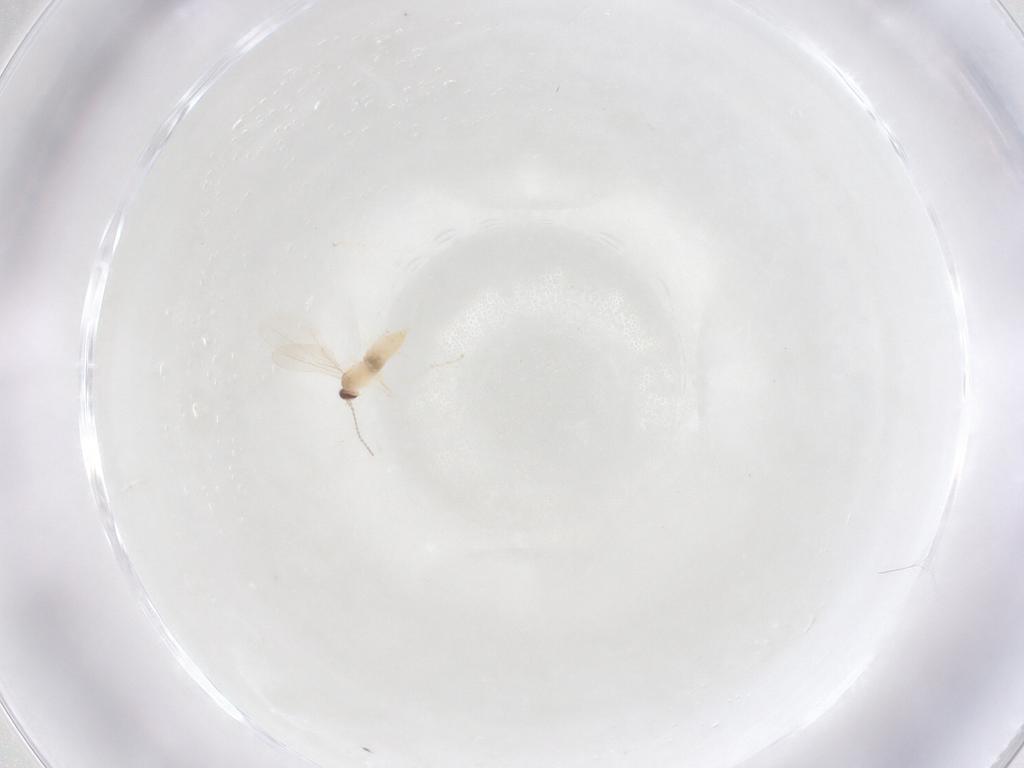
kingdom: Animalia
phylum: Arthropoda
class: Insecta
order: Diptera
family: Cecidomyiidae
